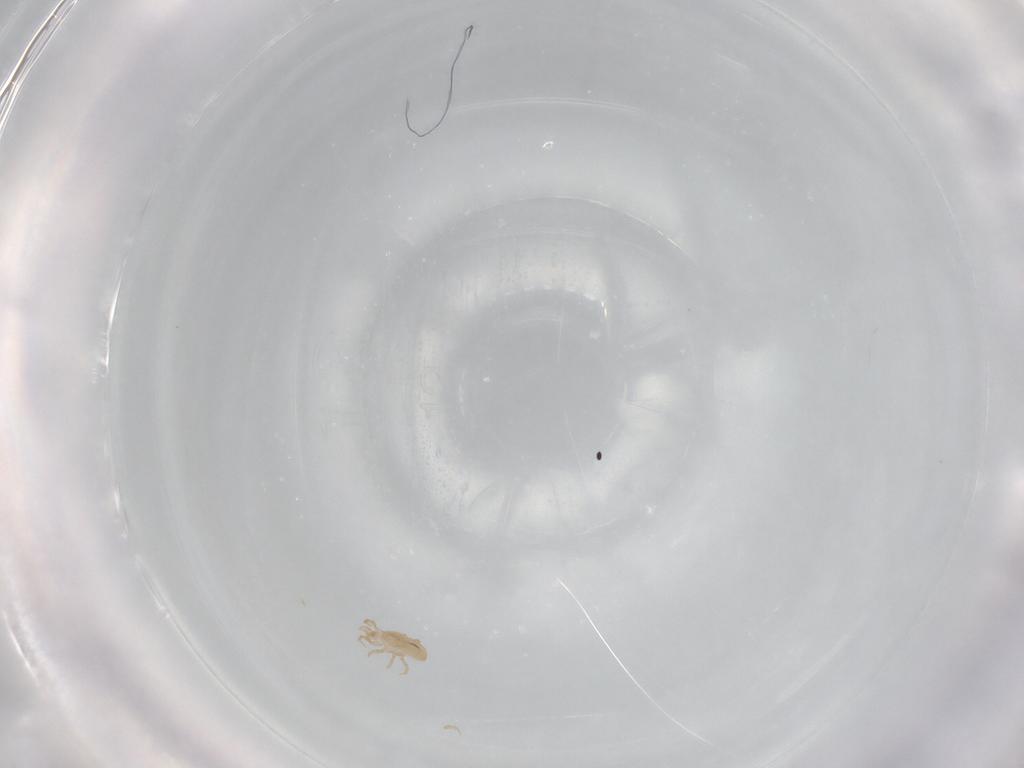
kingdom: Animalia
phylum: Arthropoda
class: Arachnida
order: Mesostigmata
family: Ascidae
